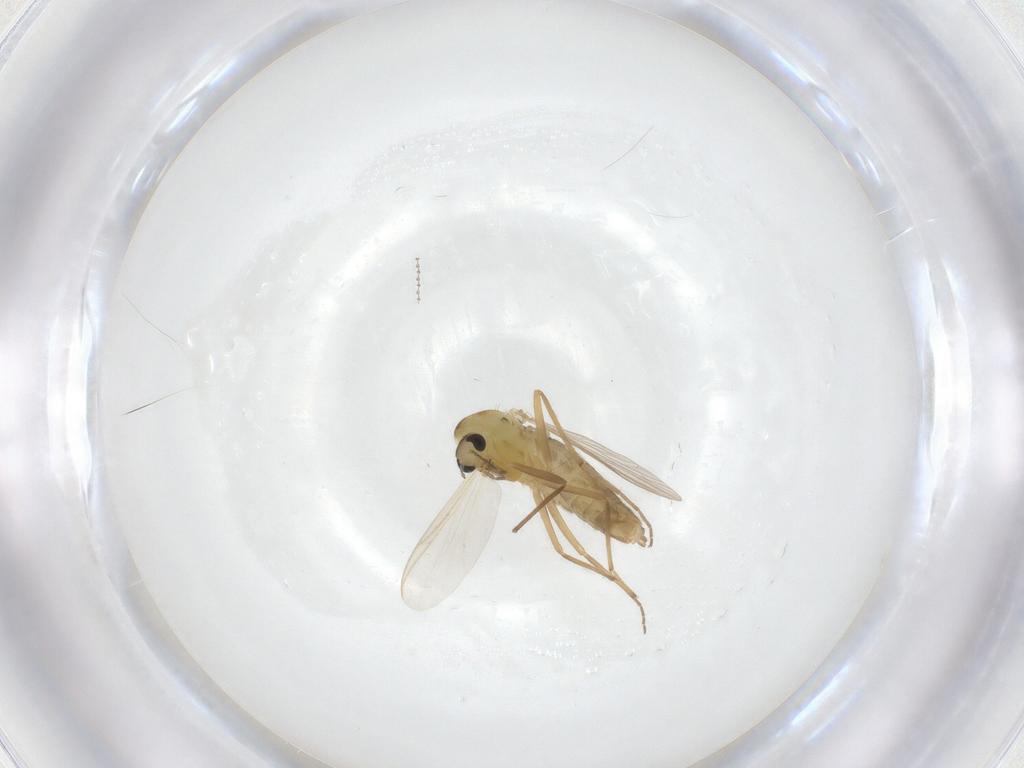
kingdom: Animalia
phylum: Arthropoda
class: Insecta
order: Diptera
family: Chironomidae
